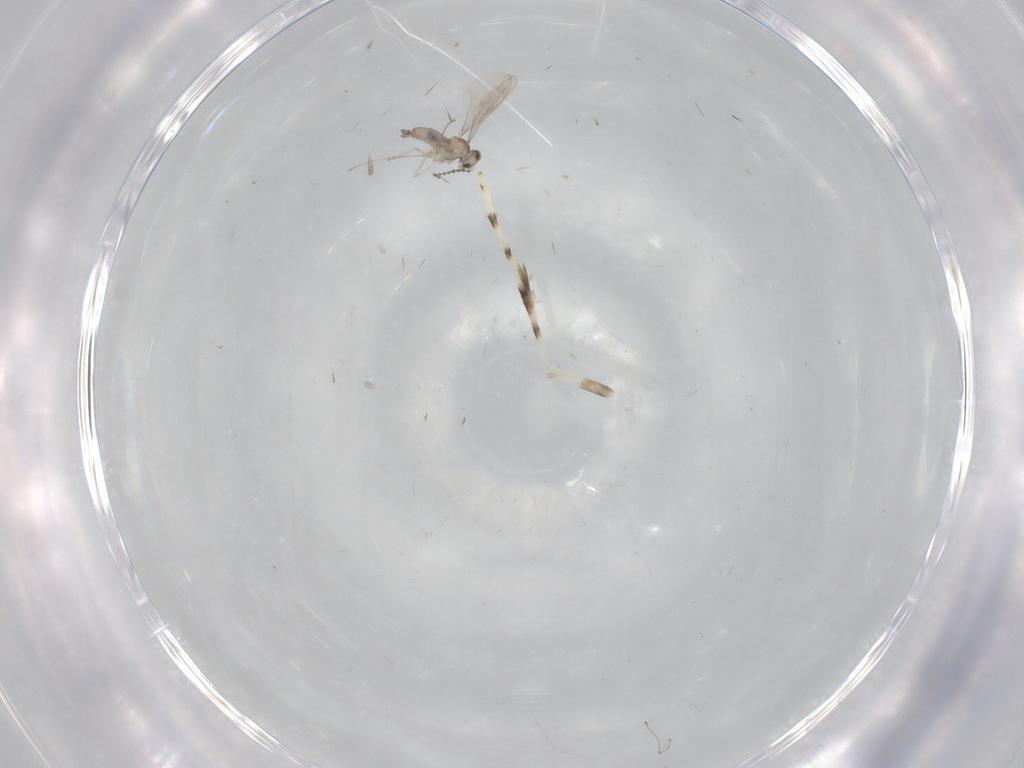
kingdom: Animalia
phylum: Arthropoda
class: Insecta
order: Diptera
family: Cecidomyiidae
